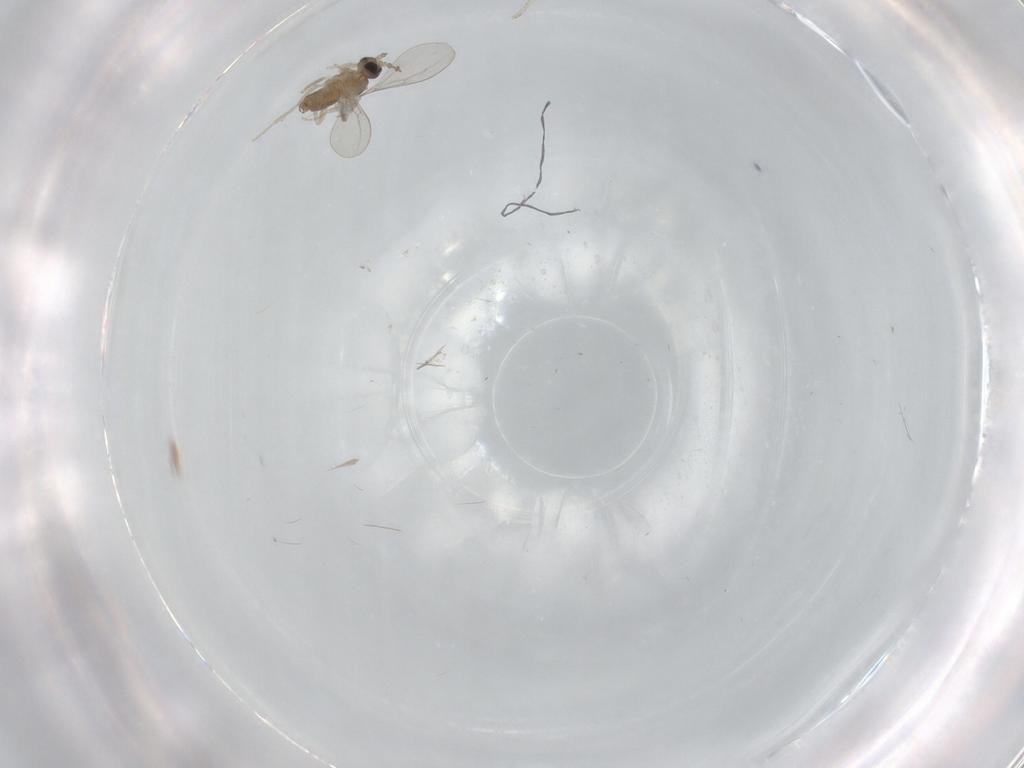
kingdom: Animalia
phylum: Arthropoda
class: Insecta
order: Diptera
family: Cecidomyiidae
